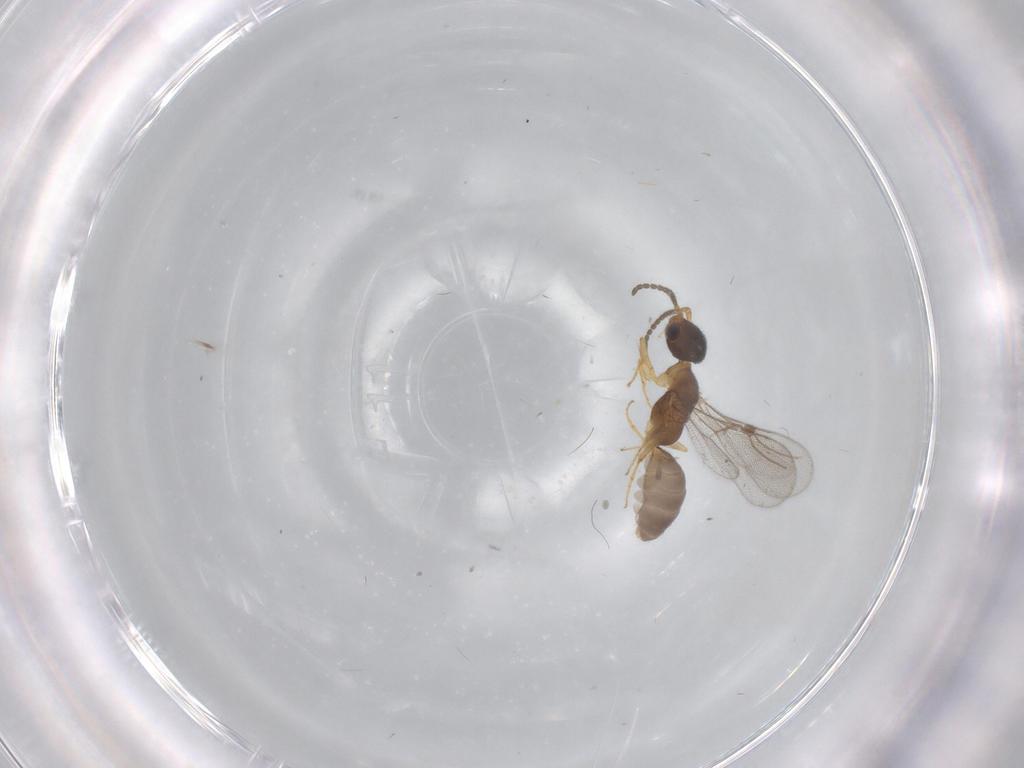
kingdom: Animalia
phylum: Arthropoda
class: Insecta
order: Hymenoptera
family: Bethylidae
